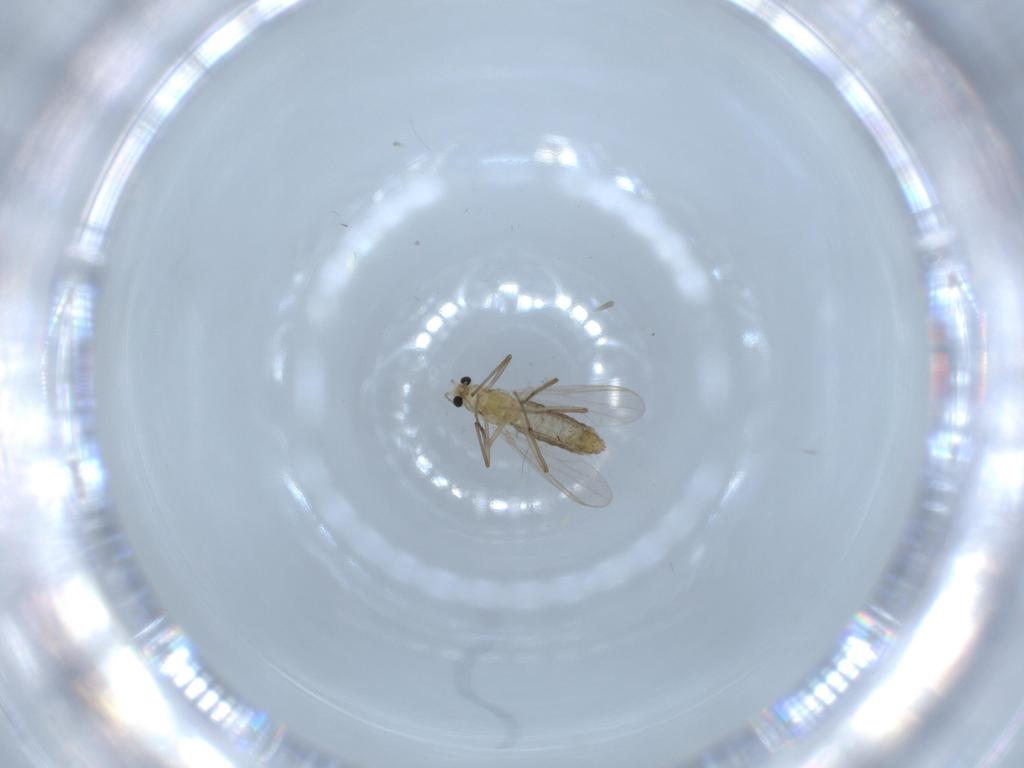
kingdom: Animalia
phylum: Arthropoda
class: Insecta
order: Diptera
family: Chironomidae
